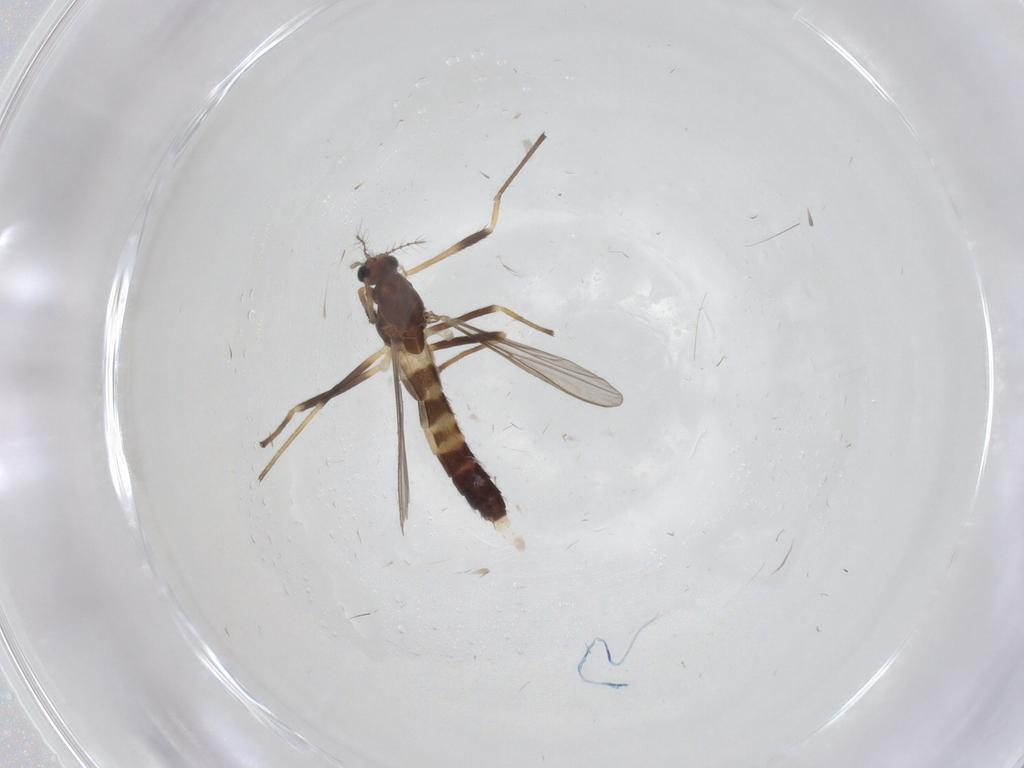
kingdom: Animalia
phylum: Arthropoda
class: Insecta
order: Diptera
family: Chironomidae
